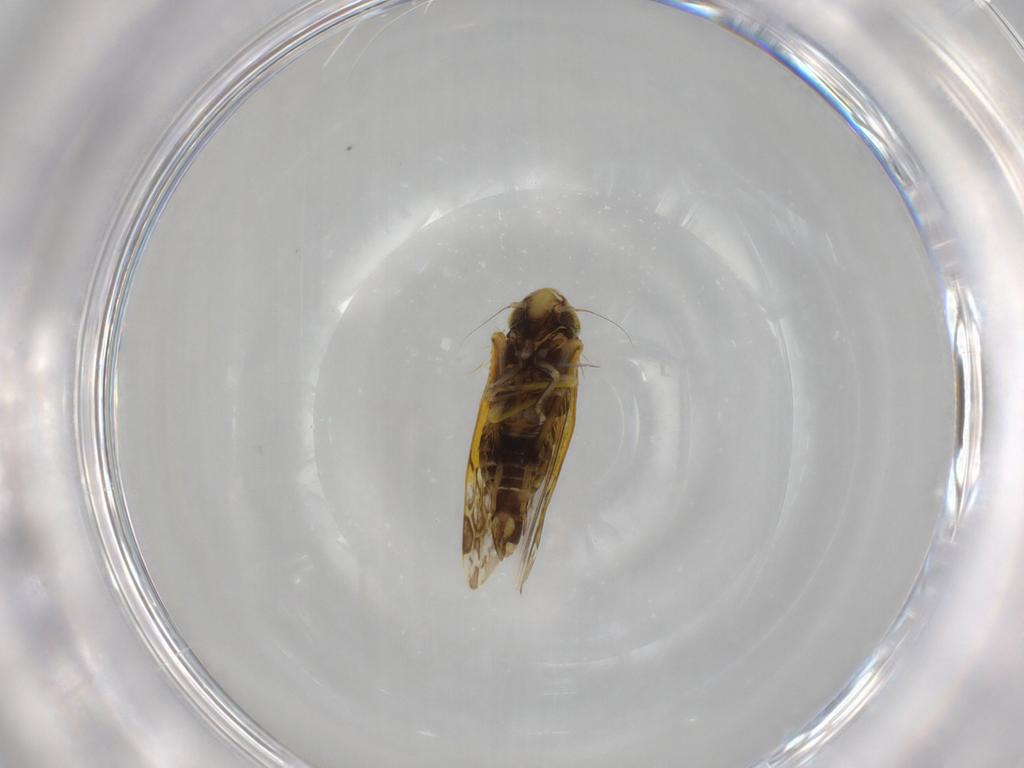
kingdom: Animalia
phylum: Arthropoda
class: Insecta
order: Hemiptera
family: Cicadellidae
